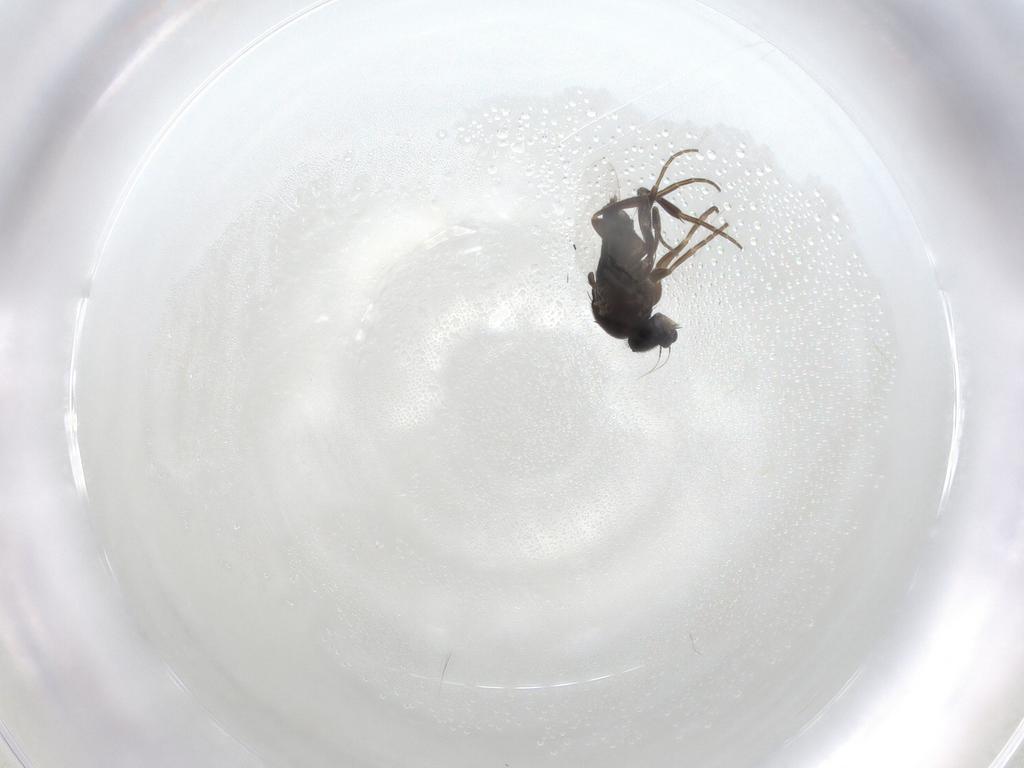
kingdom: Animalia
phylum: Arthropoda
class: Insecta
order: Diptera
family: Phoridae
